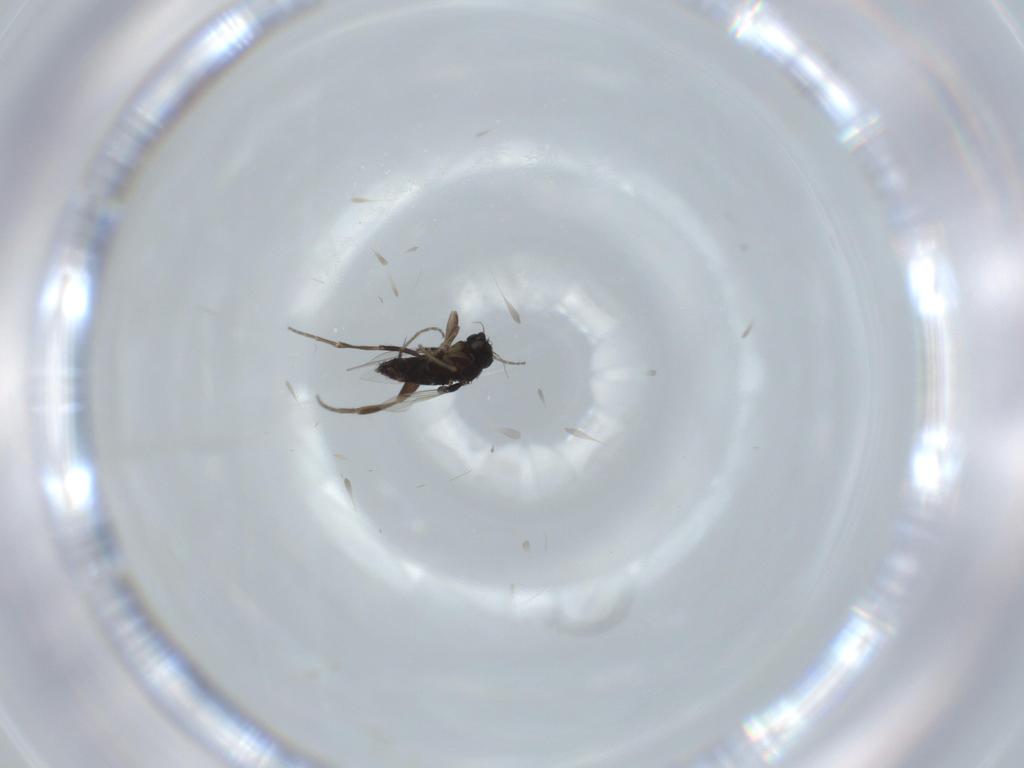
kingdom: Animalia
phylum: Arthropoda
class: Insecta
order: Diptera
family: Phoridae
